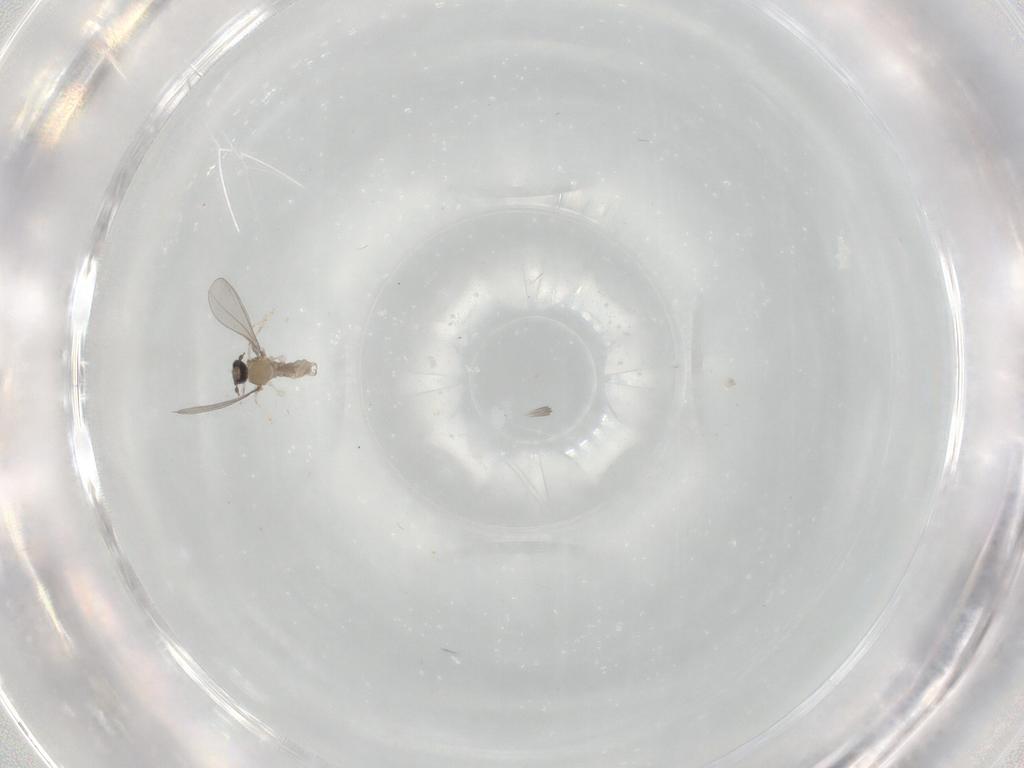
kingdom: Animalia
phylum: Arthropoda
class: Insecta
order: Diptera
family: Cecidomyiidae
